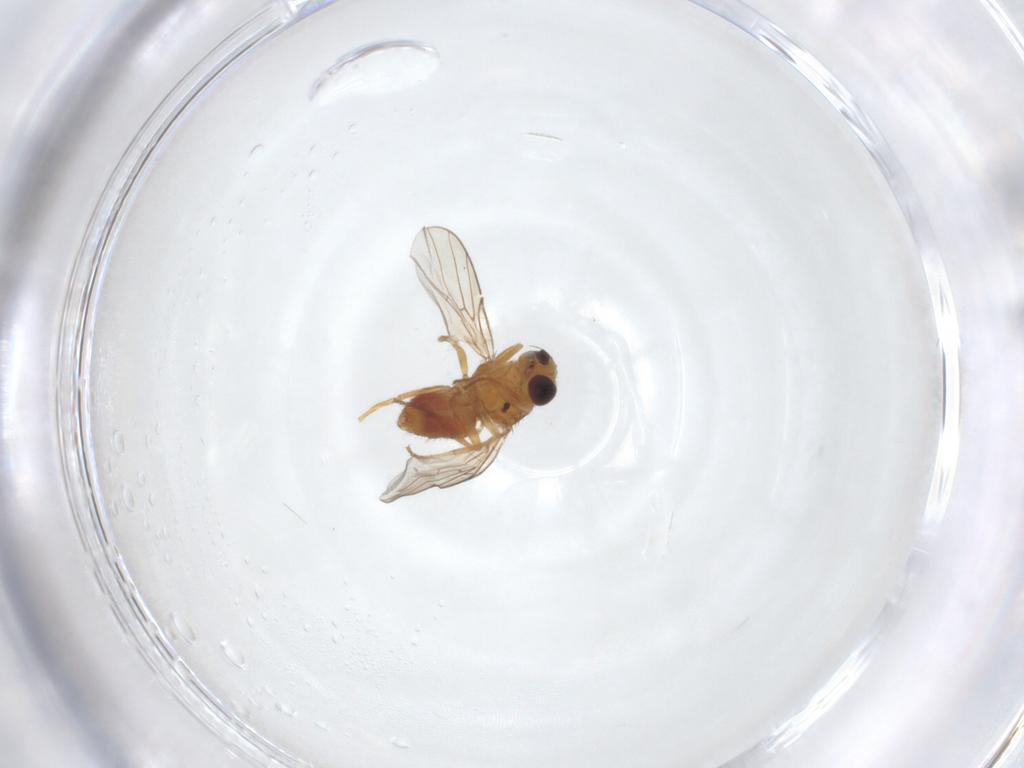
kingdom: Animalia
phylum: Arthropoda
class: Insecta
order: Diptera
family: Chloropidae
